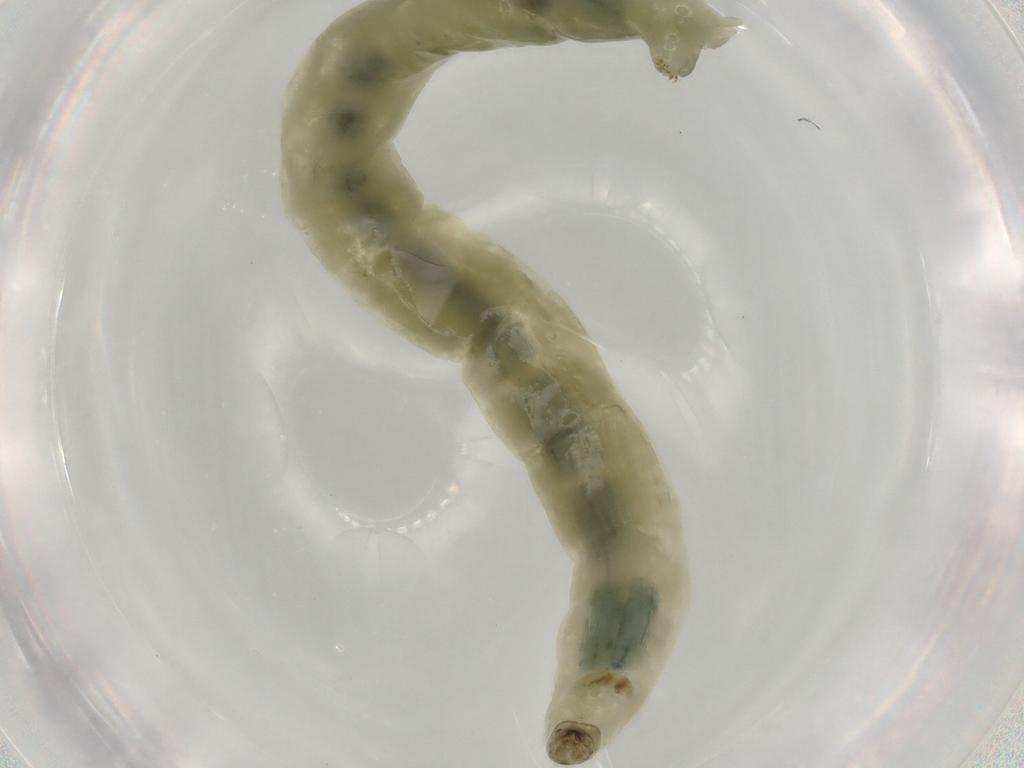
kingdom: Animalia
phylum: Arthropoda
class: Insecta
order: Diptera
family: Chironomidae
